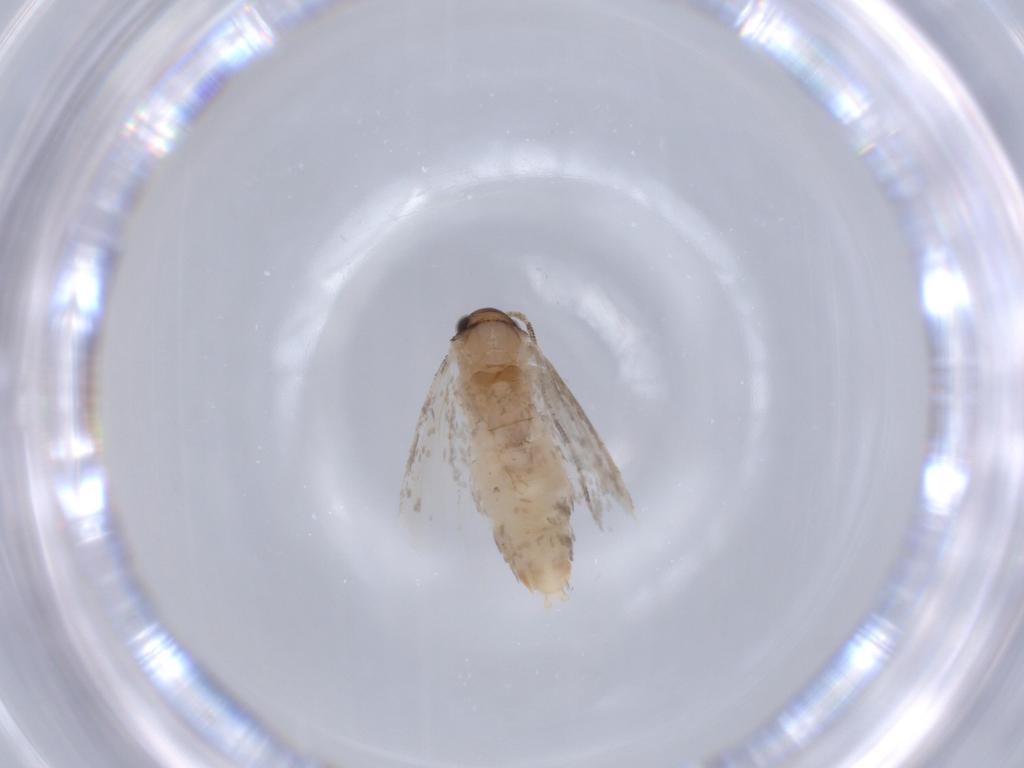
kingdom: Animalia
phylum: Arthropoda
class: Insecta
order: Lepidoptera
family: Tineidae
